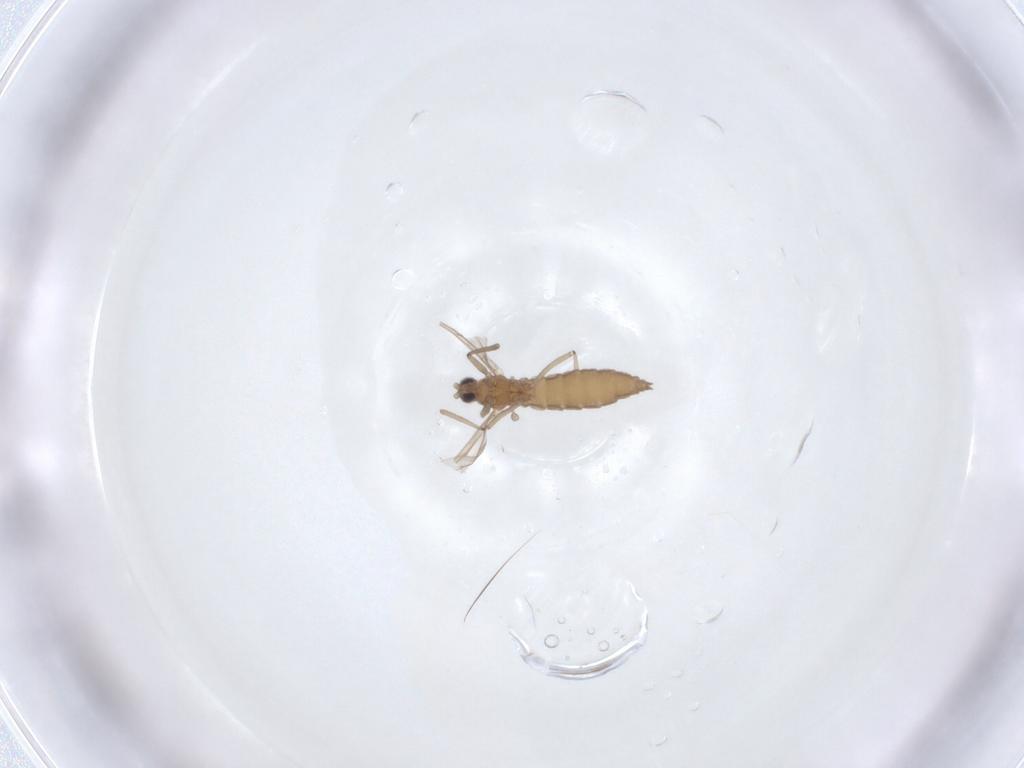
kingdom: Animalia
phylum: Arthropoda
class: Insecta
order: Diptera
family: Cecidomyiidae
